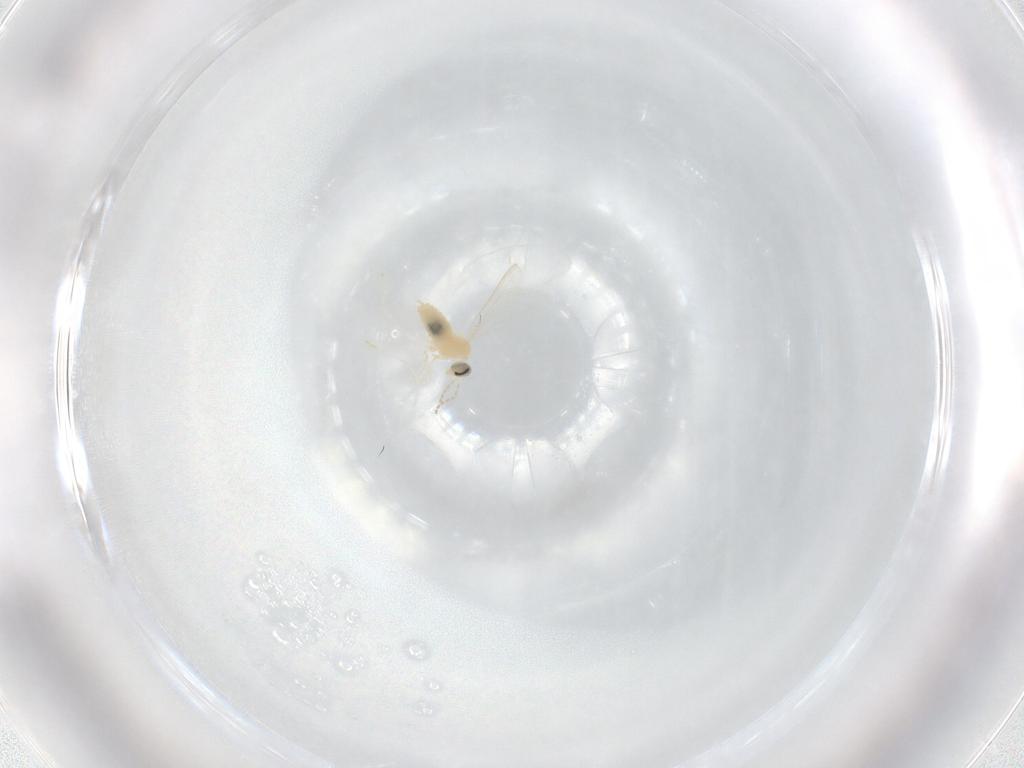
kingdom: Animalia
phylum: Arthropoda
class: Insecta
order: Diptera
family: Cecidomyiidae
